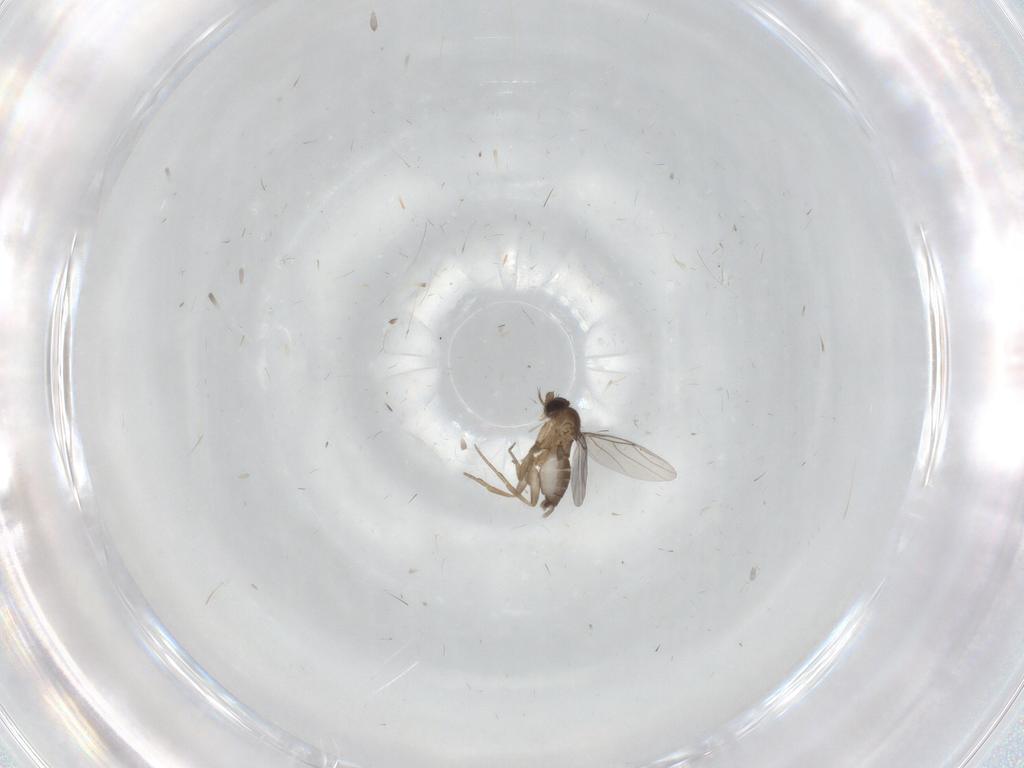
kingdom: Animalia
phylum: Arthropoda
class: Insecta
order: Diptera
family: Phoridae
